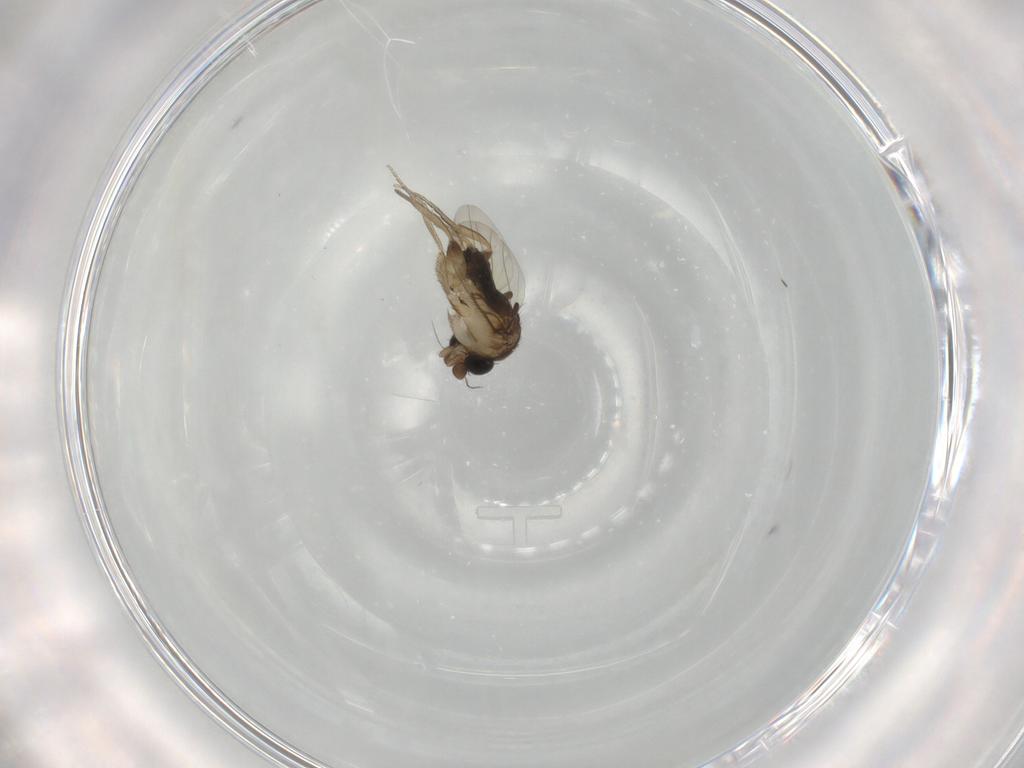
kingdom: Animalia
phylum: Arthropoda
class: Insecta
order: Diptera
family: Phoridae
